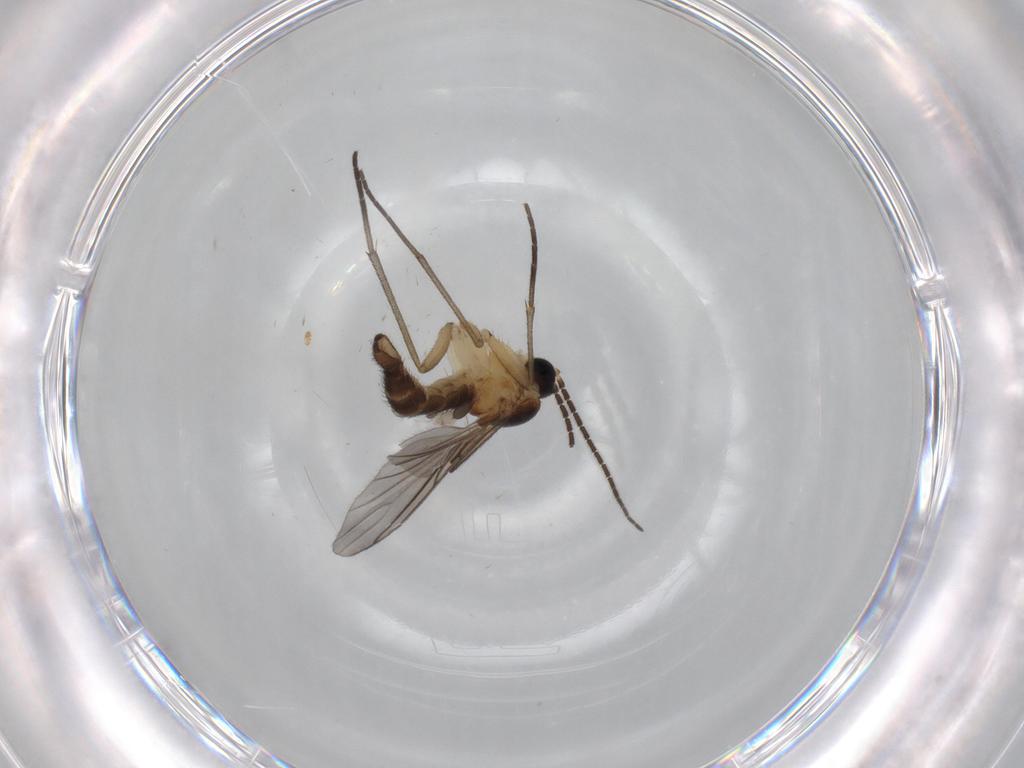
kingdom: Animalia
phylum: Arthropoda
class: Insecta
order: Diptera
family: Sciaridae
